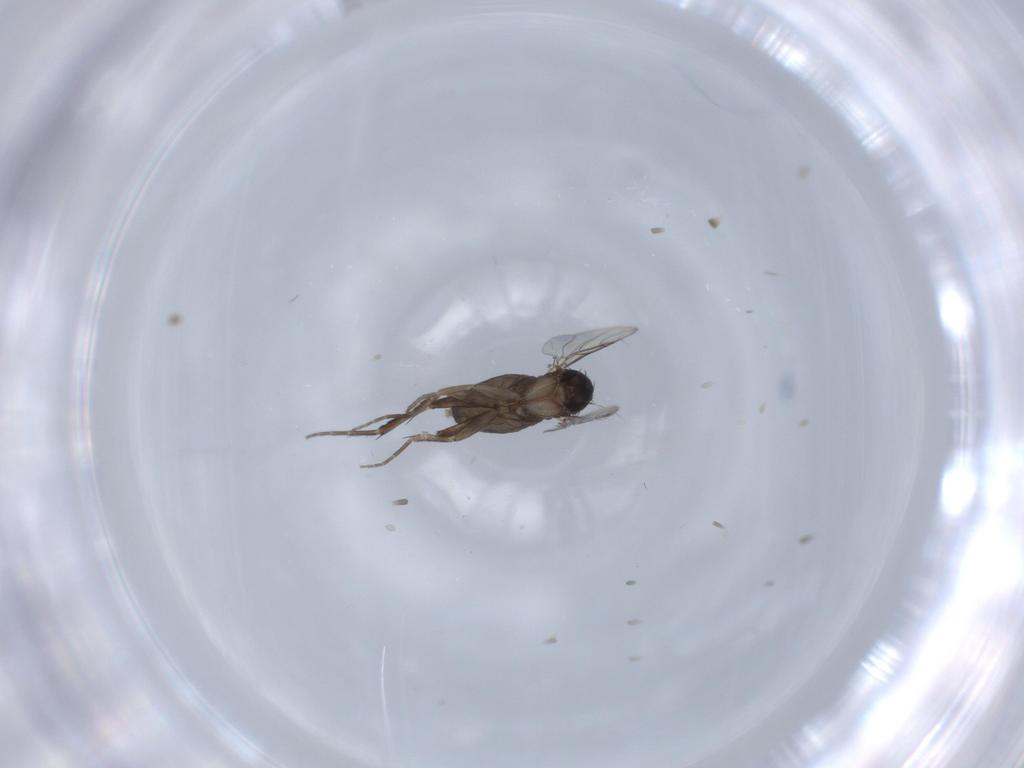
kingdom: Animalia
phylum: Arthropoda
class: Insecta
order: Diptera
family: Phoridae
